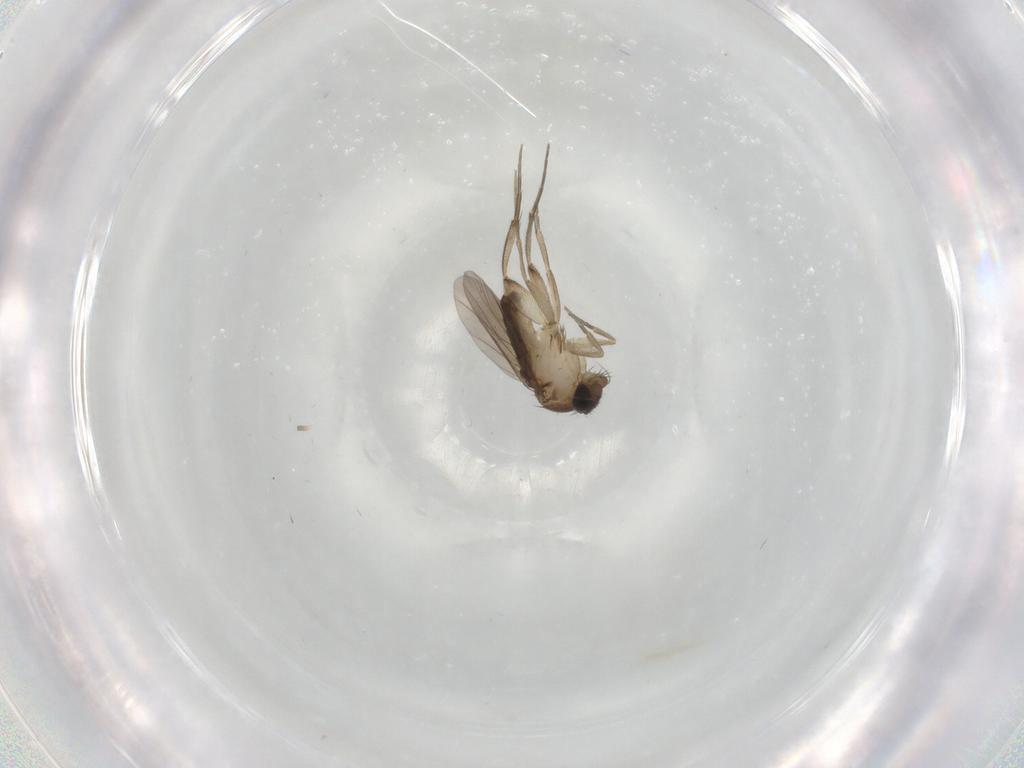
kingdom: Animalia
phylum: Arthropoda
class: Insecta
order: Diptera
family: Phoridae
